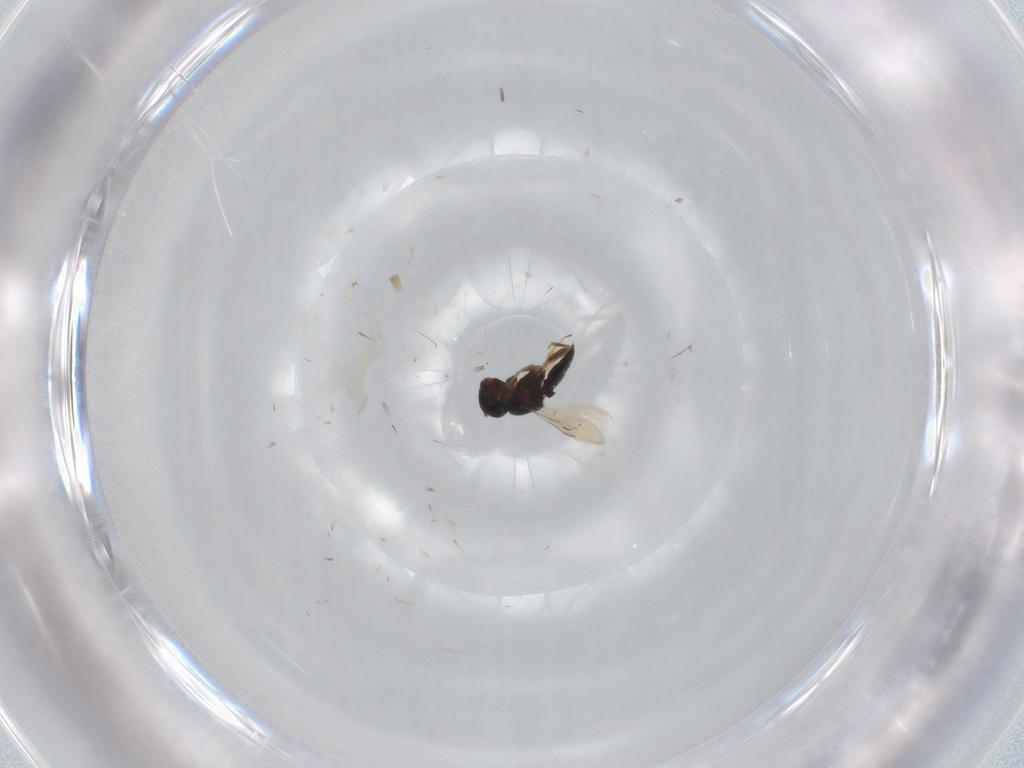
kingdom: Animalia
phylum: Arthropoda
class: Insecta
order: Hymenoptera
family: Scelionidae
